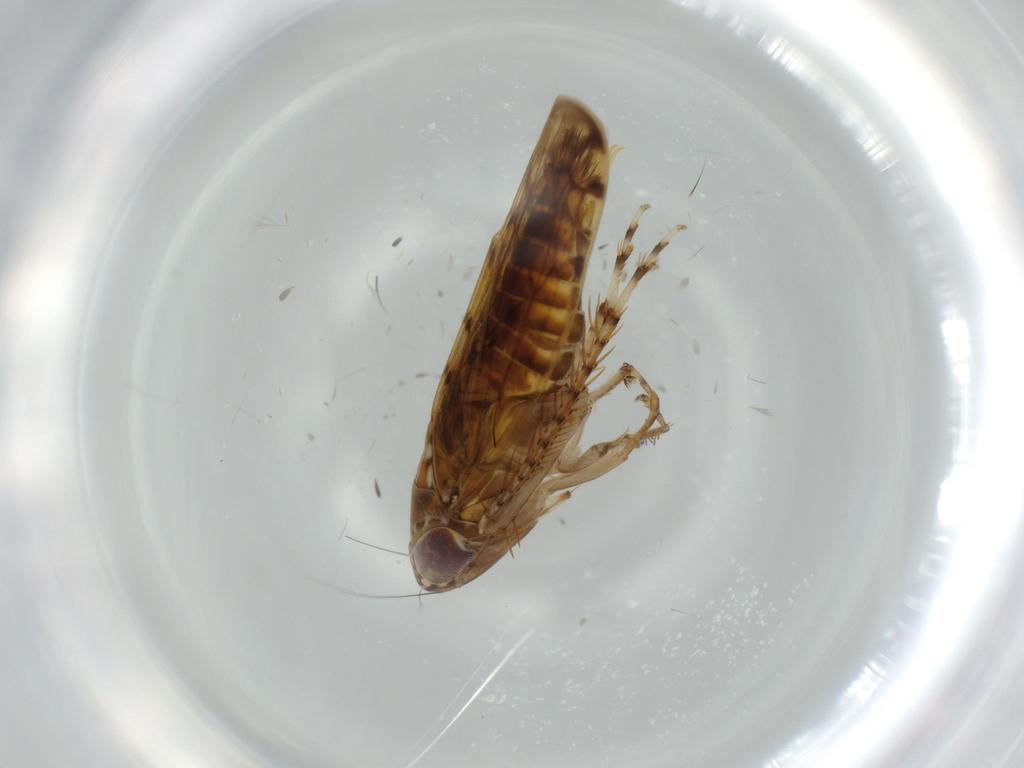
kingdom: Animalia
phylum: Arthropoda
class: Insecta
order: Hemiptera
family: Cicadellidae
